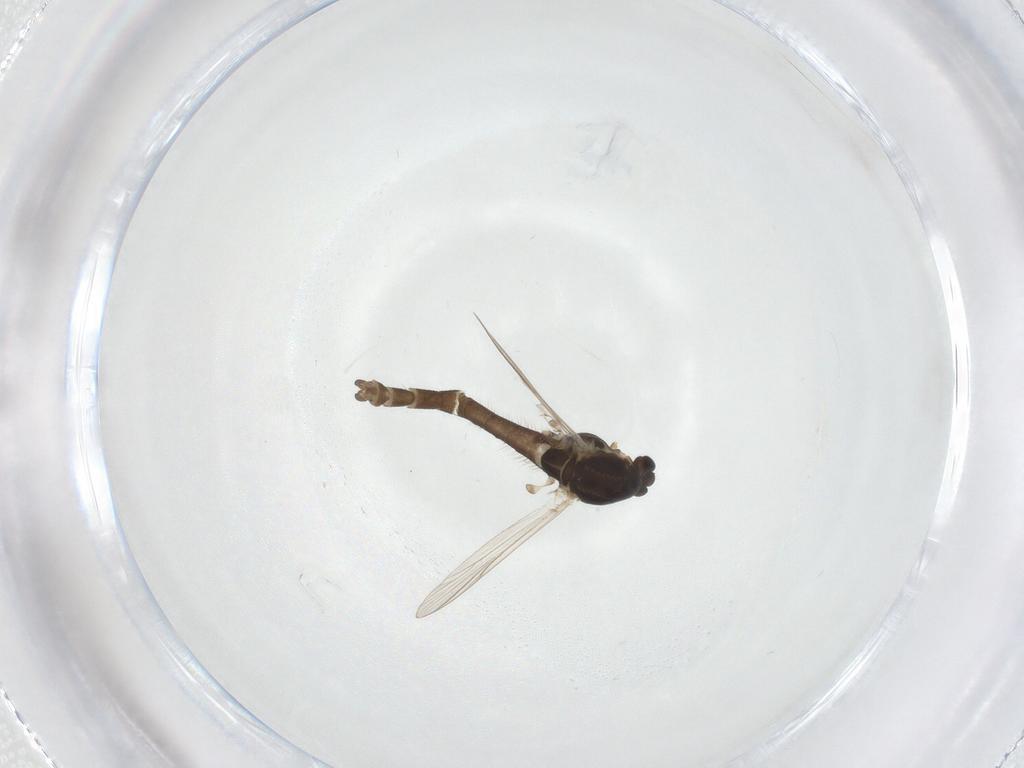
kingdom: Animalia
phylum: Arthropoda
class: Insecta
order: Diptera
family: Chironomidae
